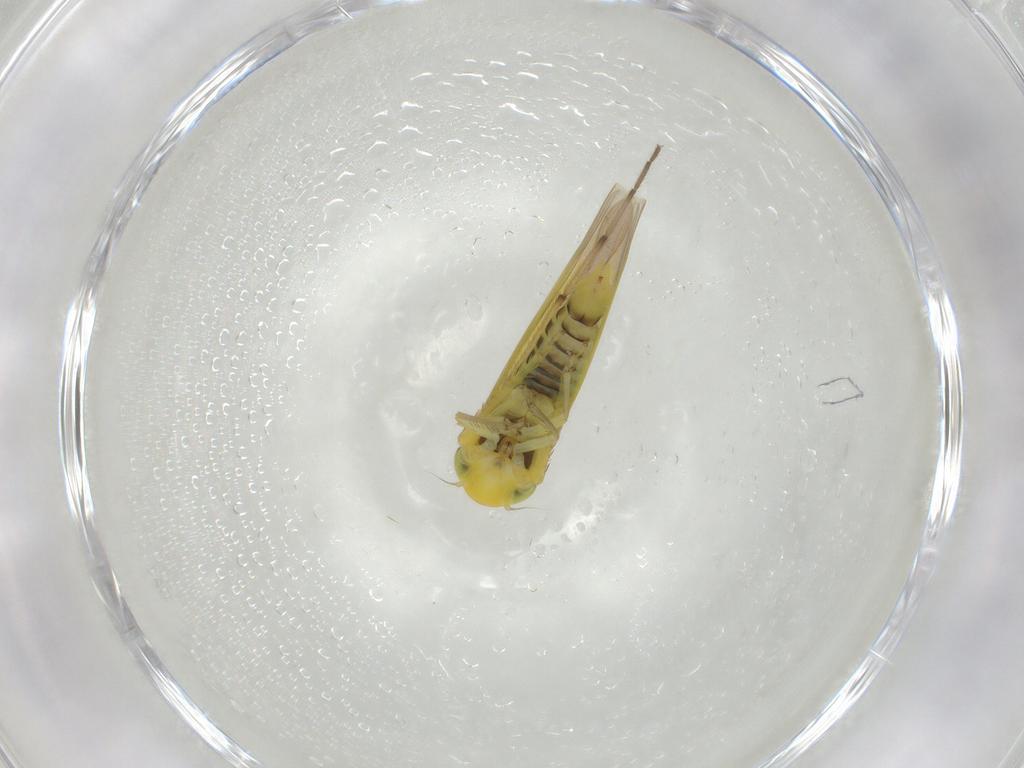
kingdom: Animalia
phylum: Arthropoda
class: Insecta
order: Hemiptera
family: Cicadellidae
